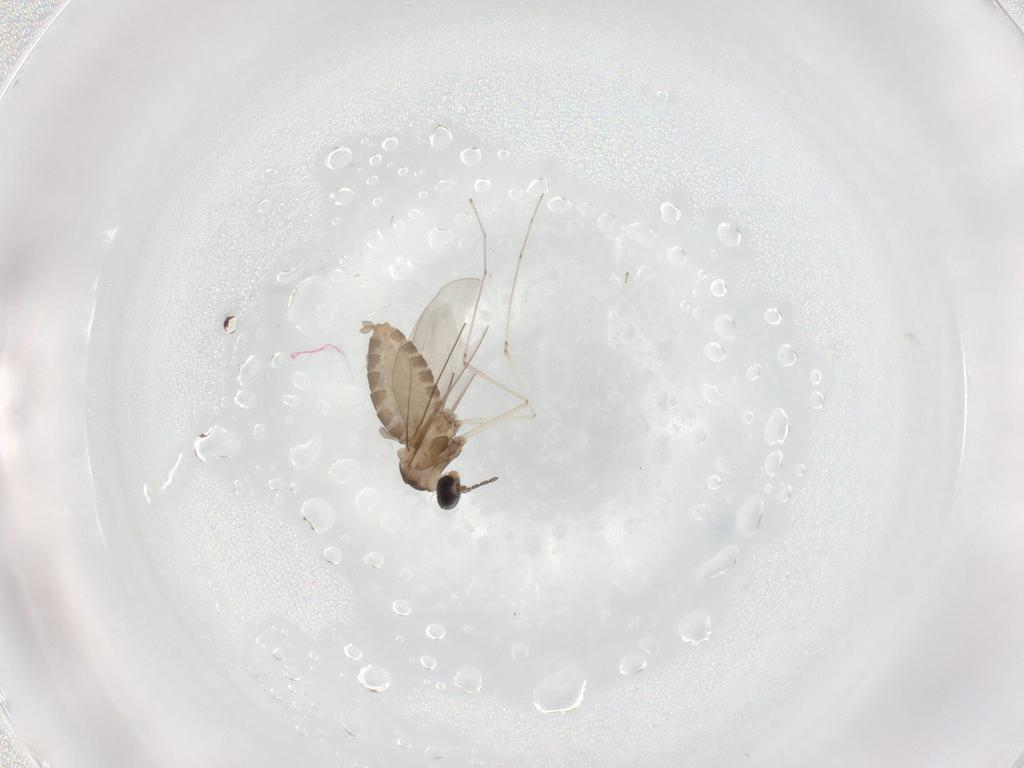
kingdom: Animalia
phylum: Arthropoda
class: Insecta
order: Diptera
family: Cecidomyiidae
